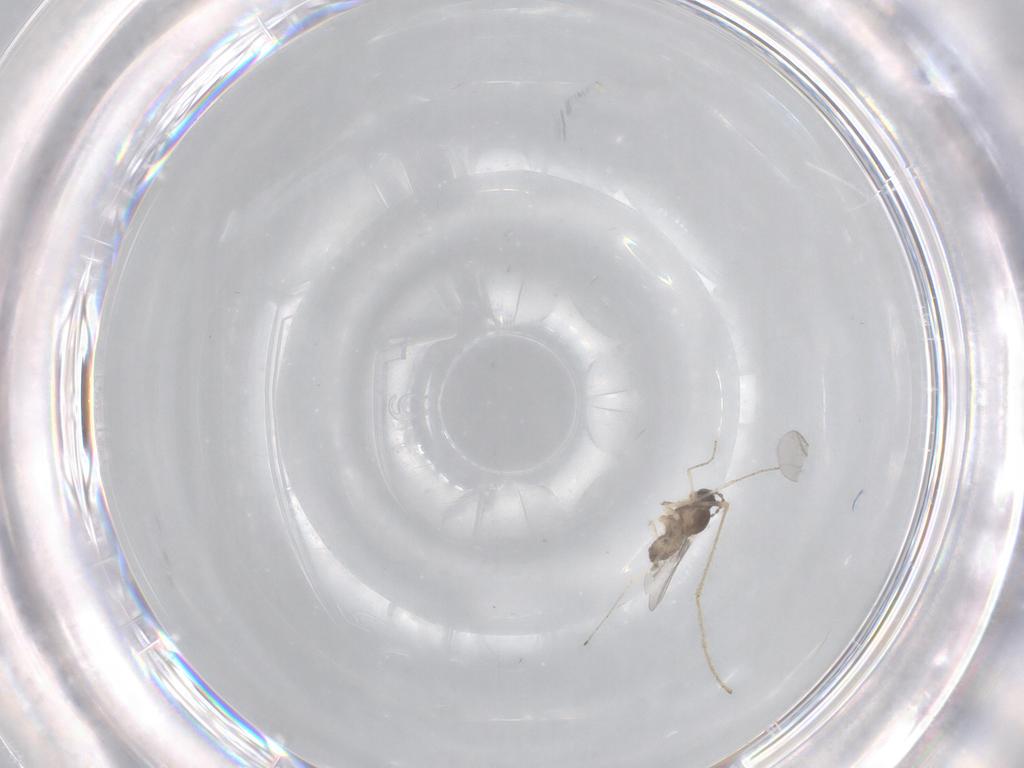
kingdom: Animalia
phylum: Arthropoda
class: Insecta
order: Diptera
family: Cecidomyiidae
